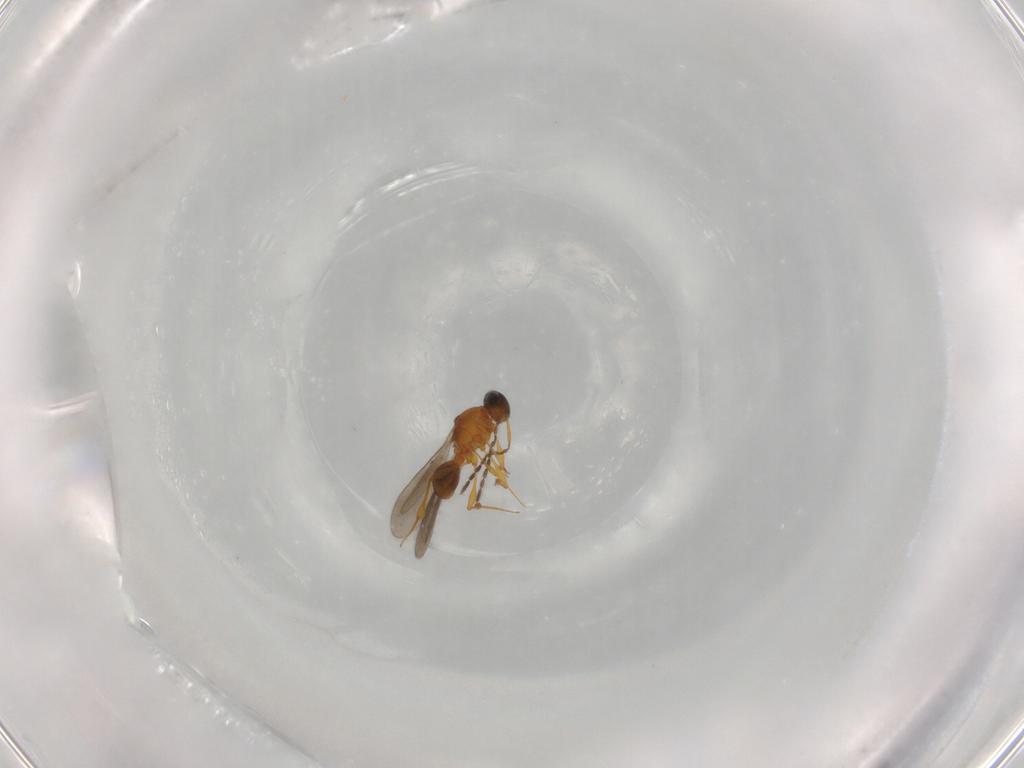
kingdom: Animalia
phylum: Arthropoda
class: Insecta
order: Hymenoptera
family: Platygastridae
